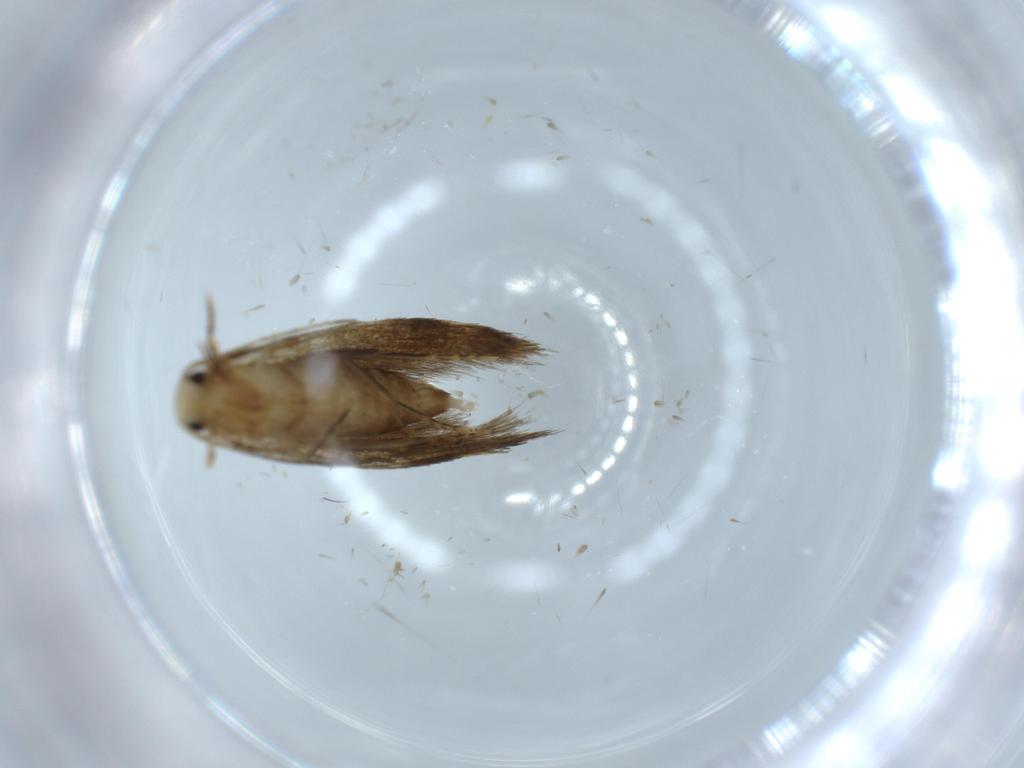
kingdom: Animalia
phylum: Arthropoda
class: Insecta
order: Lepidoptera
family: Tineidae
